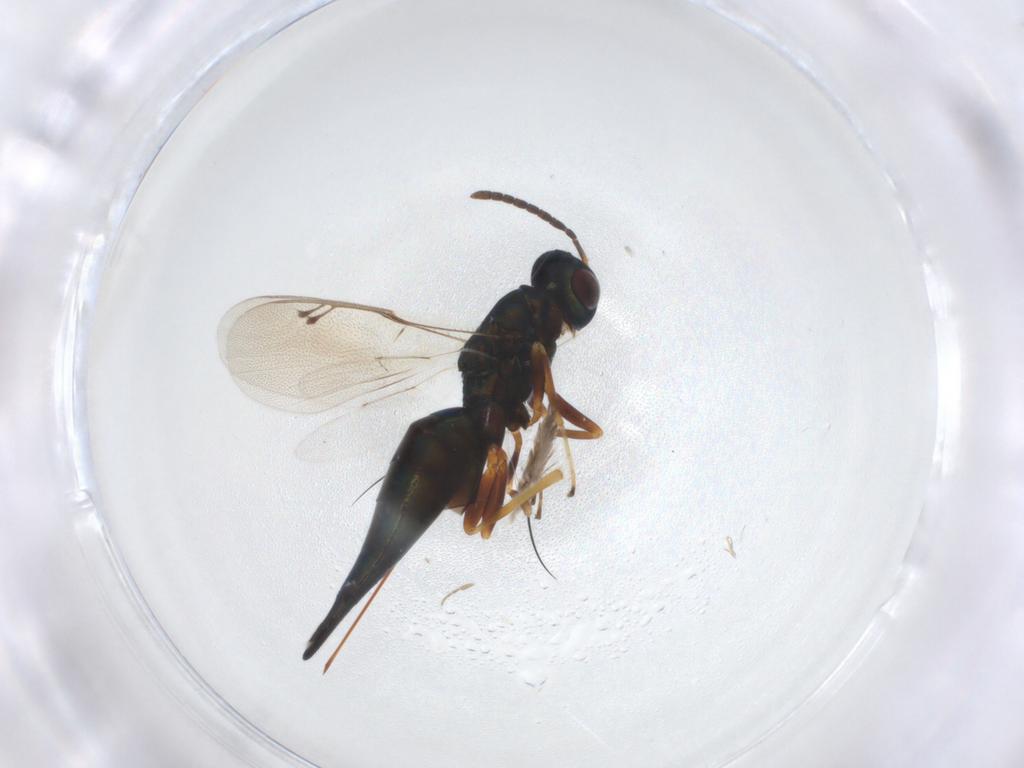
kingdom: Animalia
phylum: Arthropoda
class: Insecta
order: Hymenoptera
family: Pteromalidae
